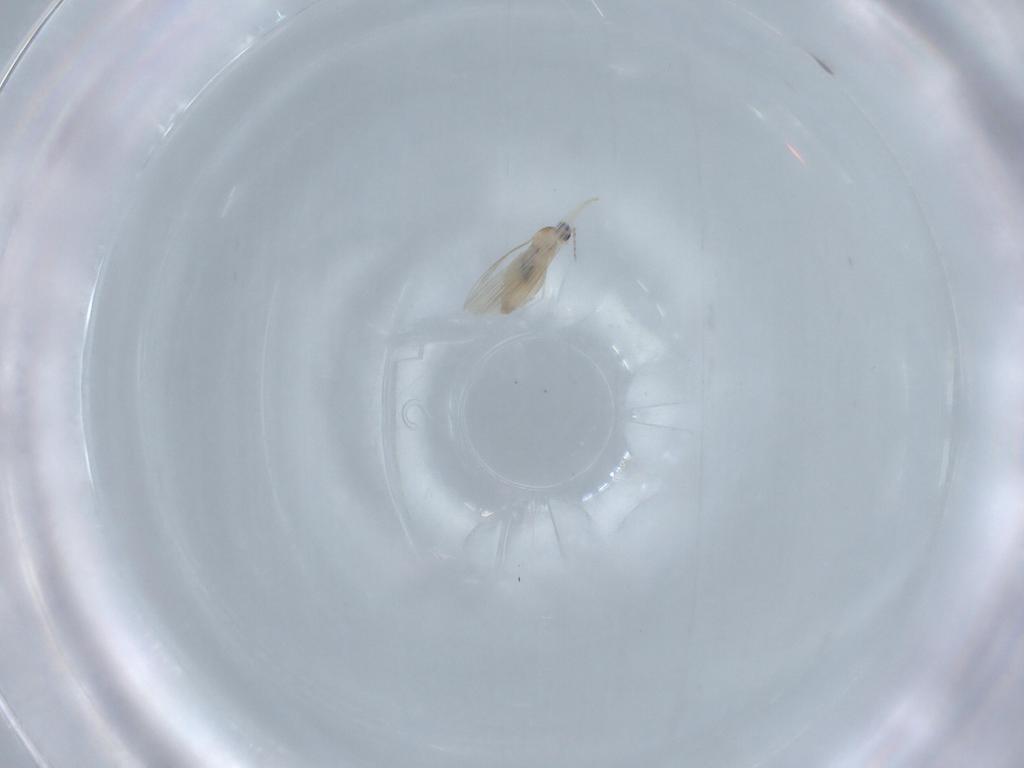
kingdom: Animalia
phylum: Arthropoda
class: Insecta
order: Diptera
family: Cecidomyiidae
